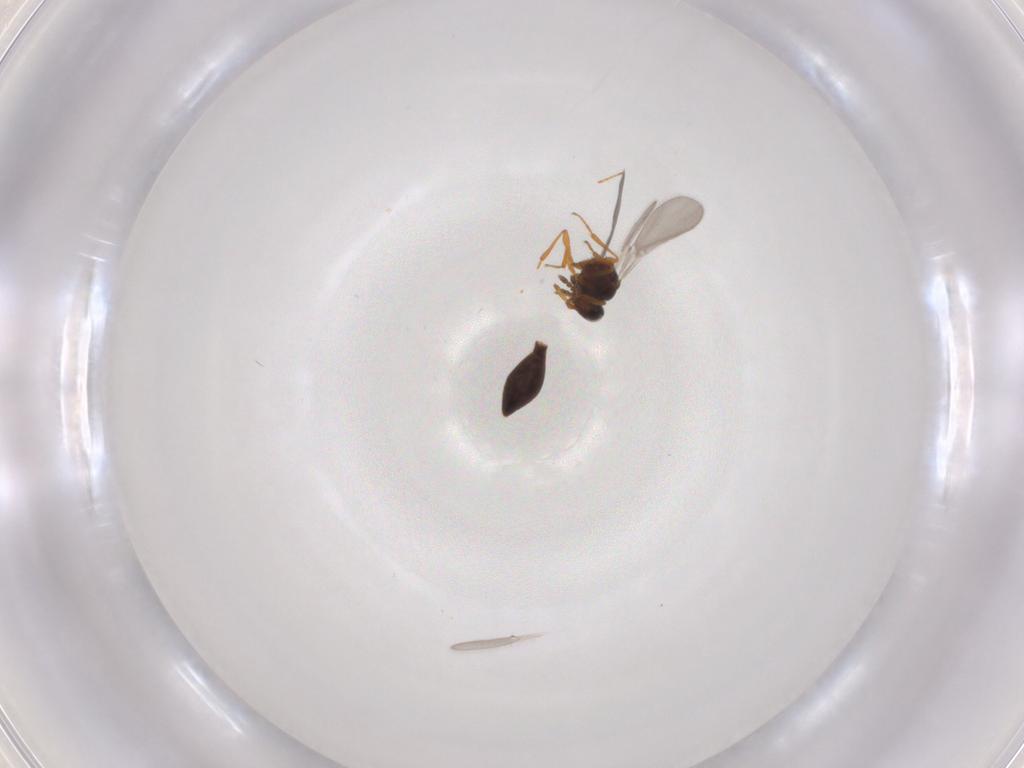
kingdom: Animalia
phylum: Arthropoda
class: Insecta
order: Hymenoptera
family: Platygastridae
